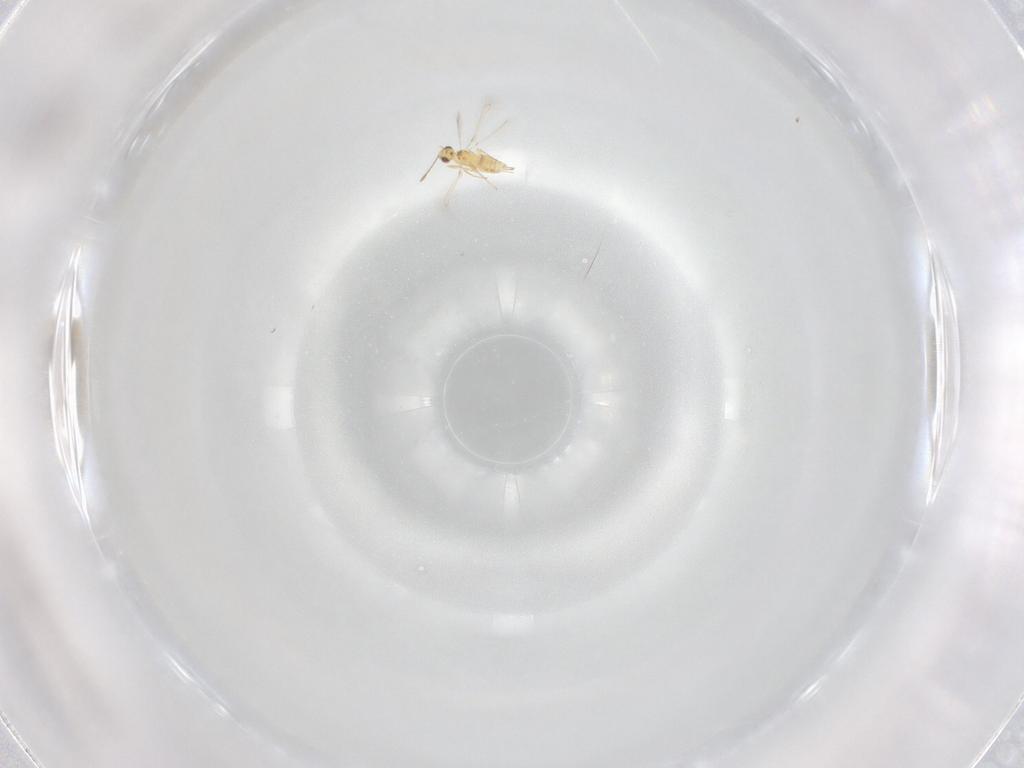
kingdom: Animalia
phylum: Arthropoda
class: Insecta
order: Hymenoptera
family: Mymaridae
